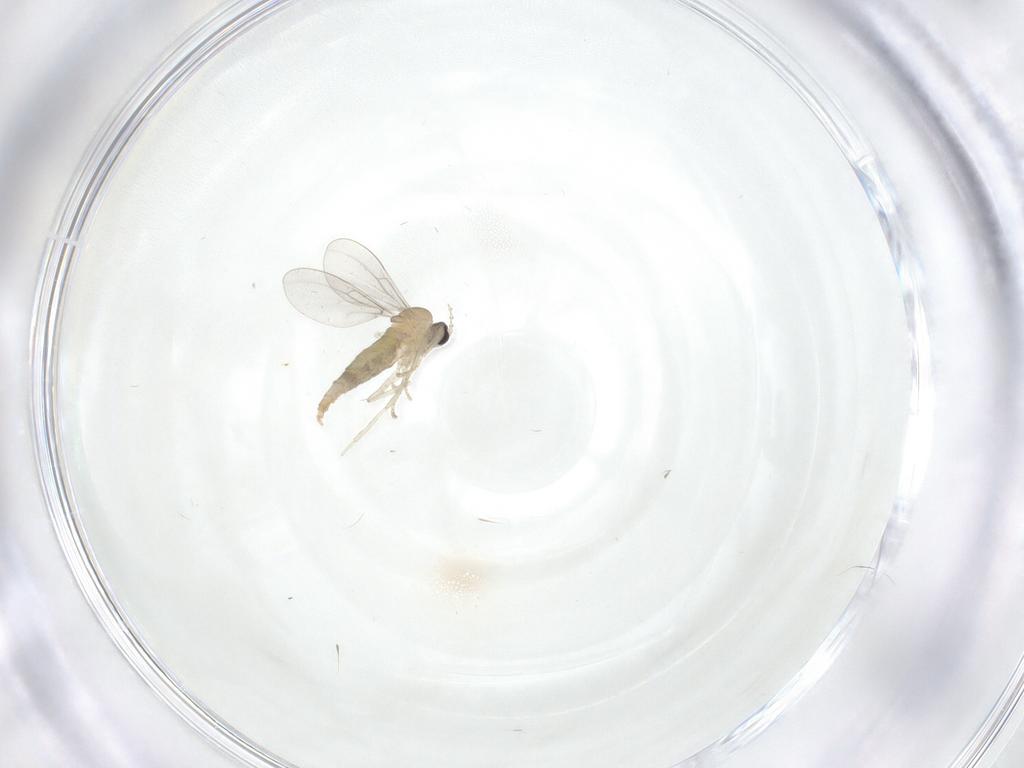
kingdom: Animalia
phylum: Arthropoda
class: Insecta
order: Diptera
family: Cecidomyiidae
